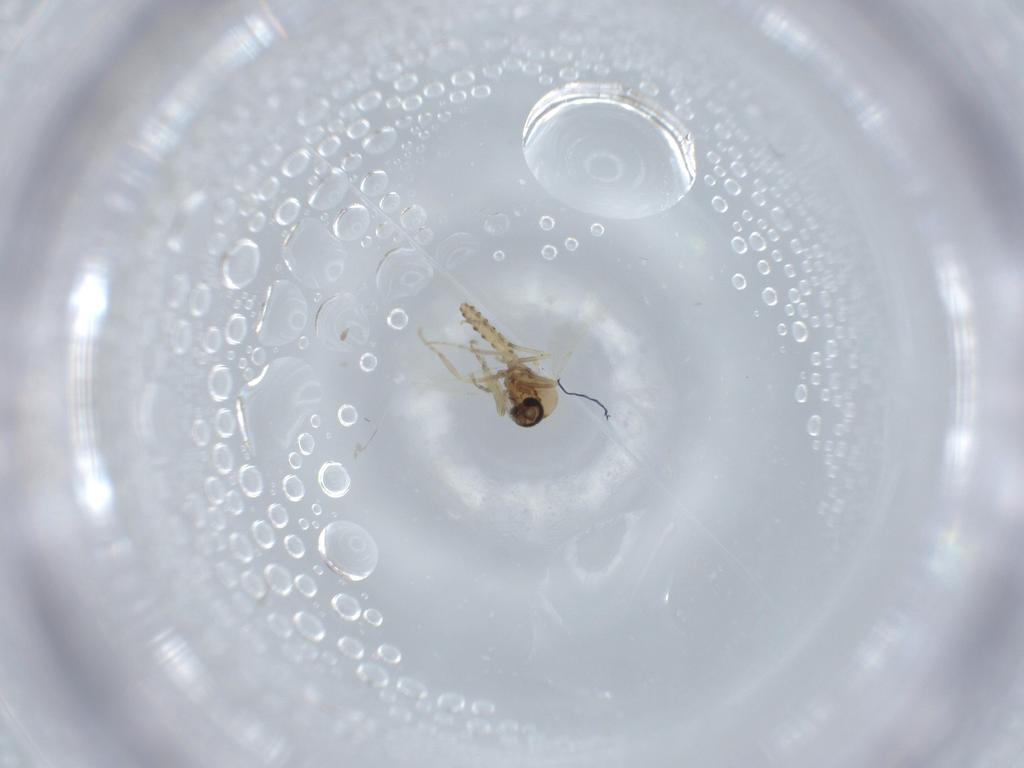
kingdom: Animalia
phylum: Arthropoda
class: Insecta
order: Diptera
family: Ceratopogonidae
